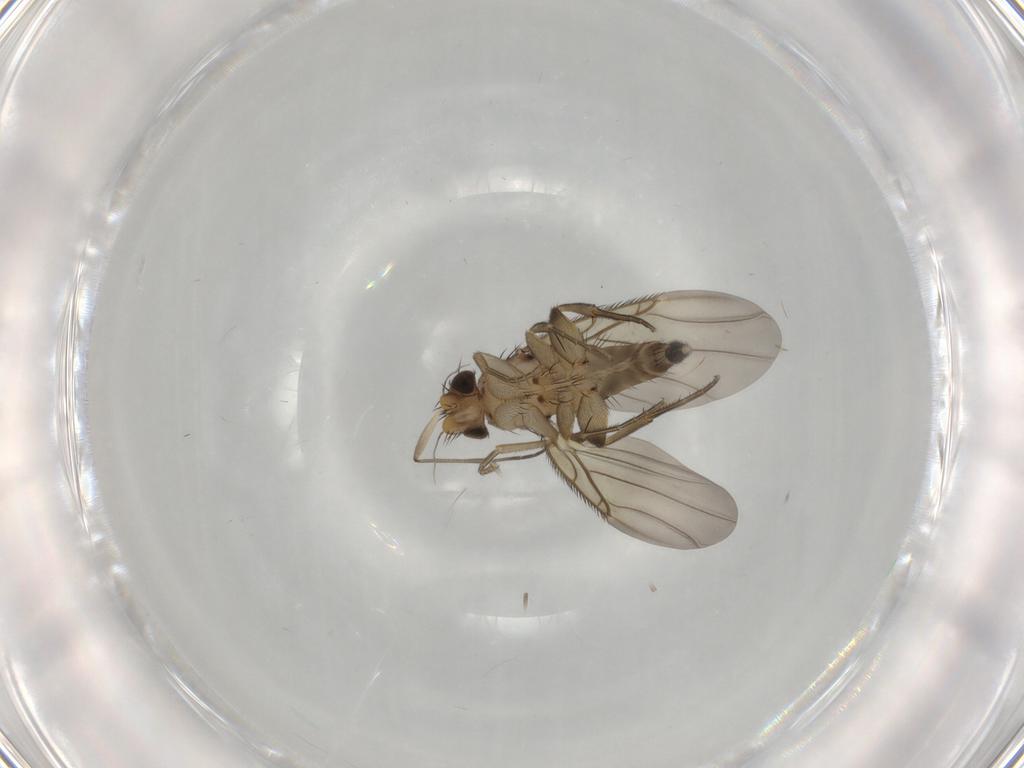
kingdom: Animalia
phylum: Arthropoda
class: Insecta
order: Diptera
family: Phoridae
